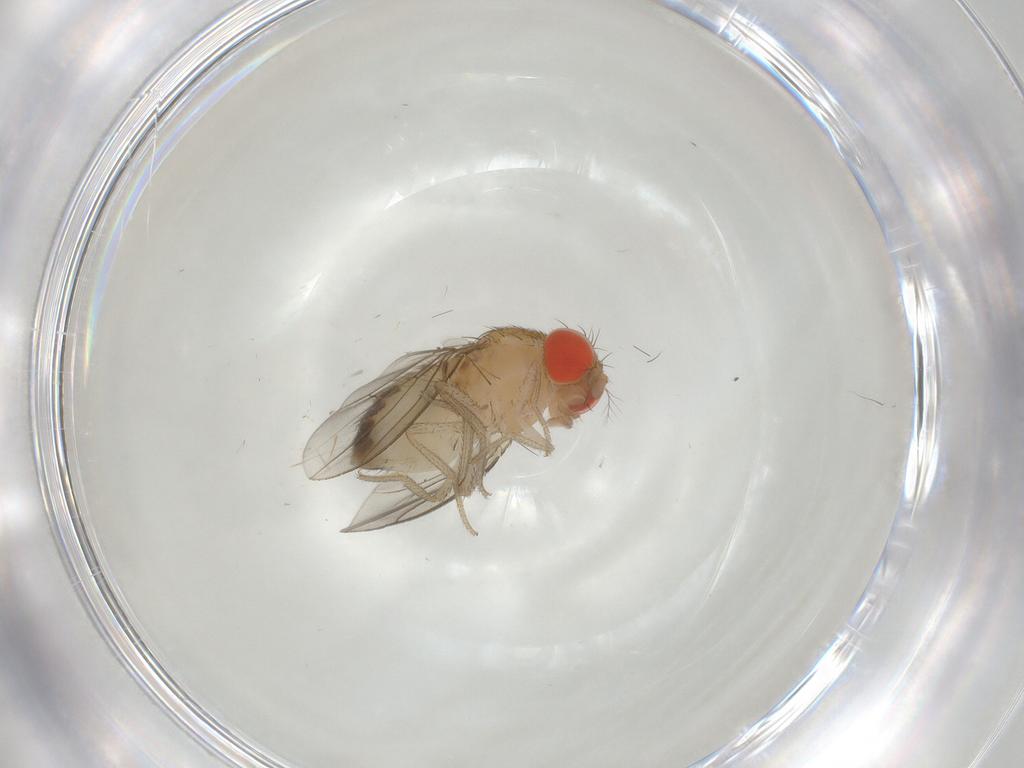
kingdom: Animalia
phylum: Arthropoda
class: Insecta
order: Diptera
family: Drosophilidae
